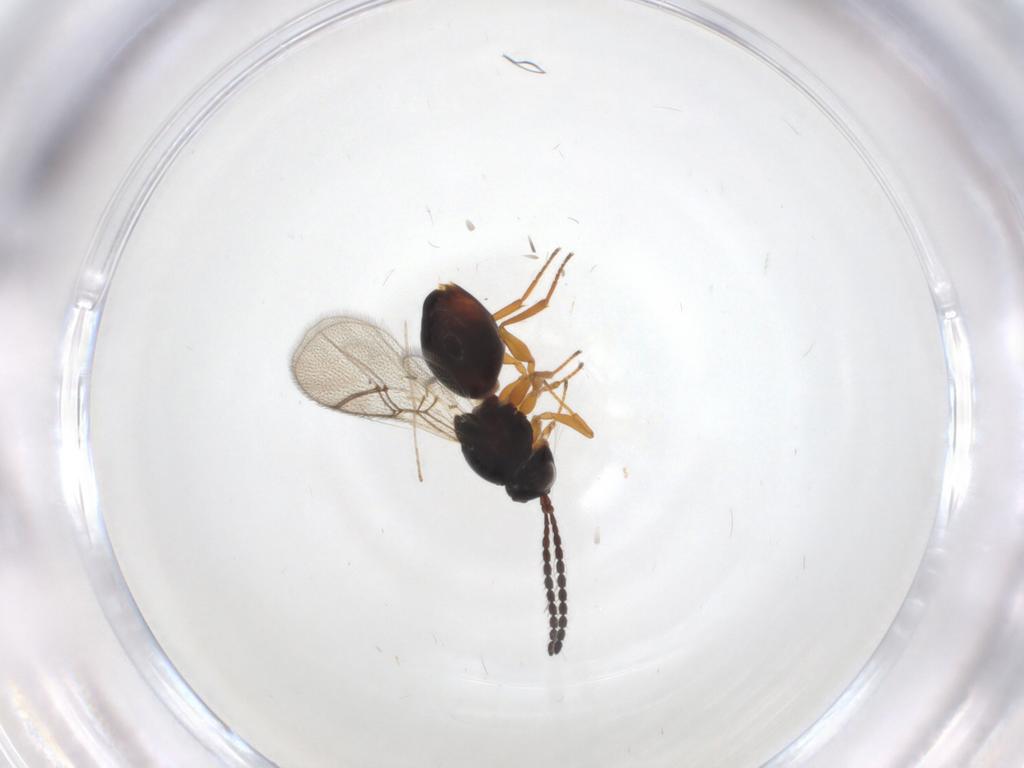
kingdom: Animalia
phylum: Arthropoda
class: Insecta
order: Hymenoptera
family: Figitidae
